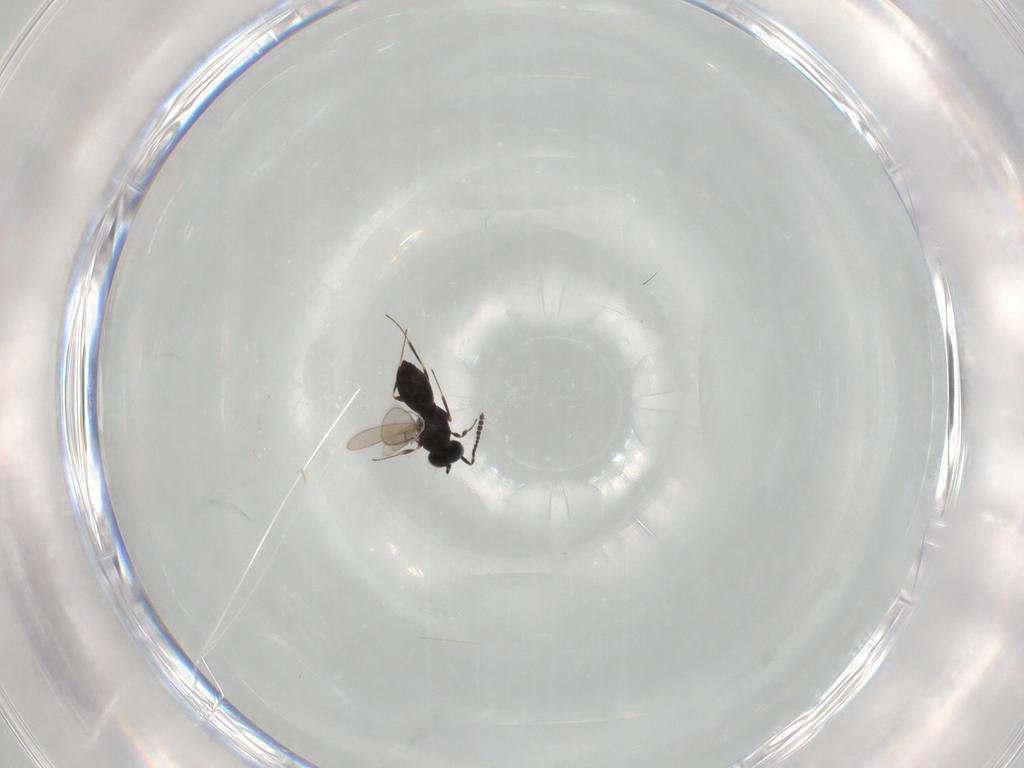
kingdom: Animalia
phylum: Arthropoda
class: Insecta
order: Hymenoptera
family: Scelionidae
